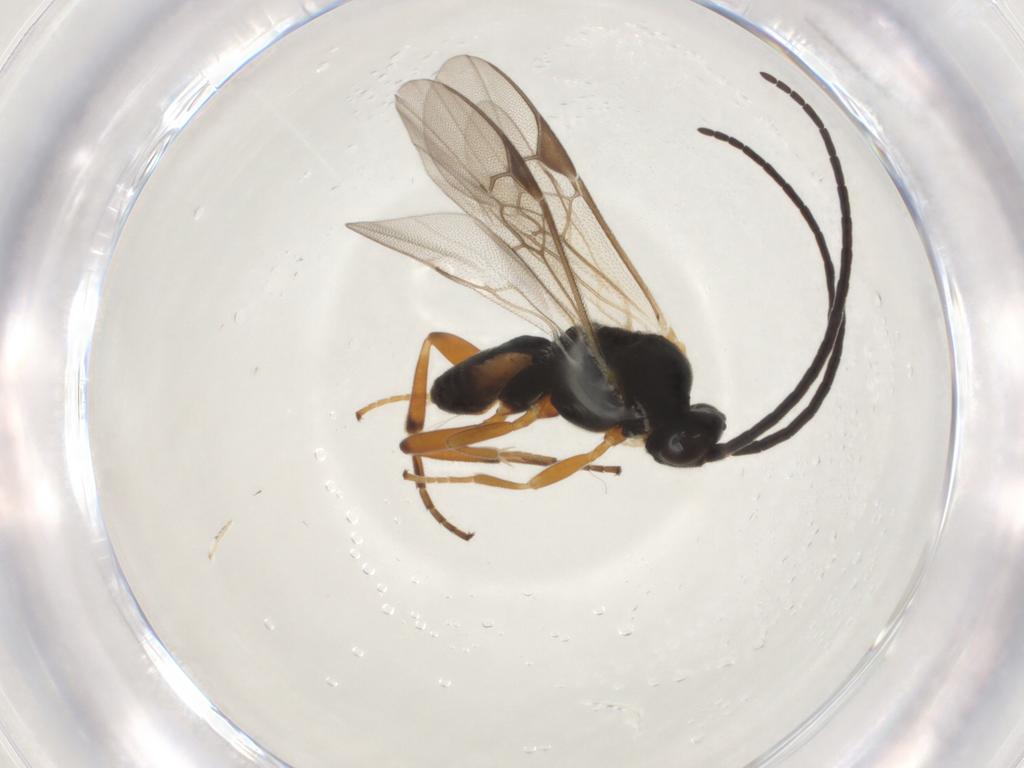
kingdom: Animalia
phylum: Arthropoda
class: Insecta
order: Hymenoptera
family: Braconidae
